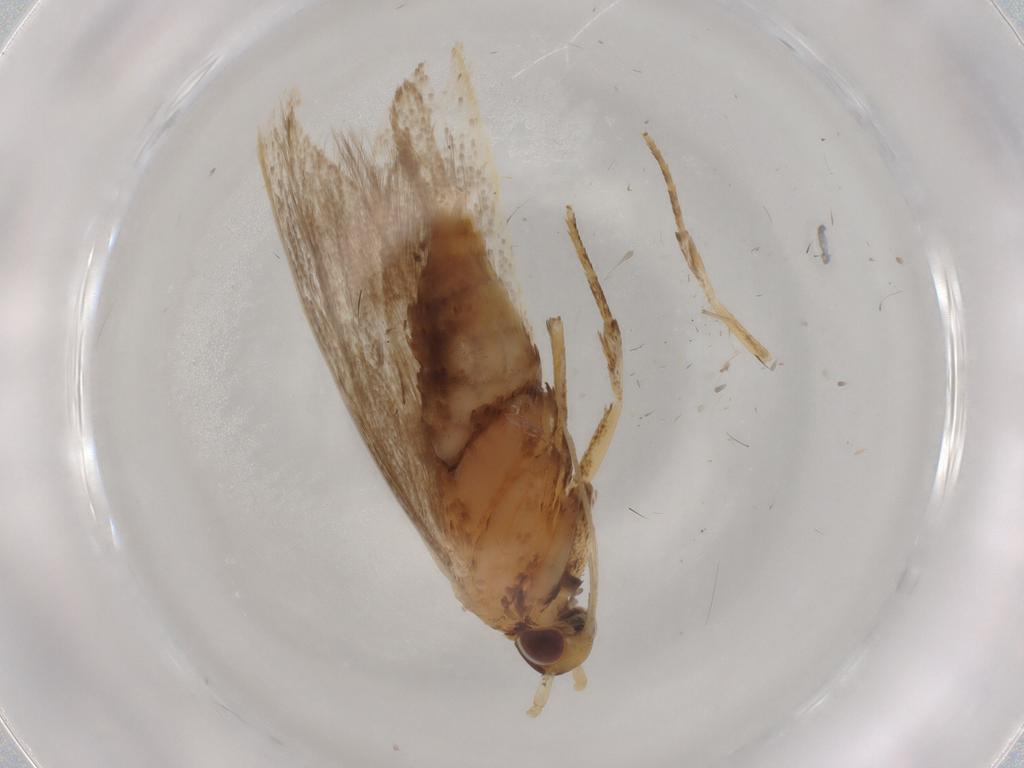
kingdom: Animalia
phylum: Arthropoda
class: Insecta
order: Lepidoptera
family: Lecithoceridae
